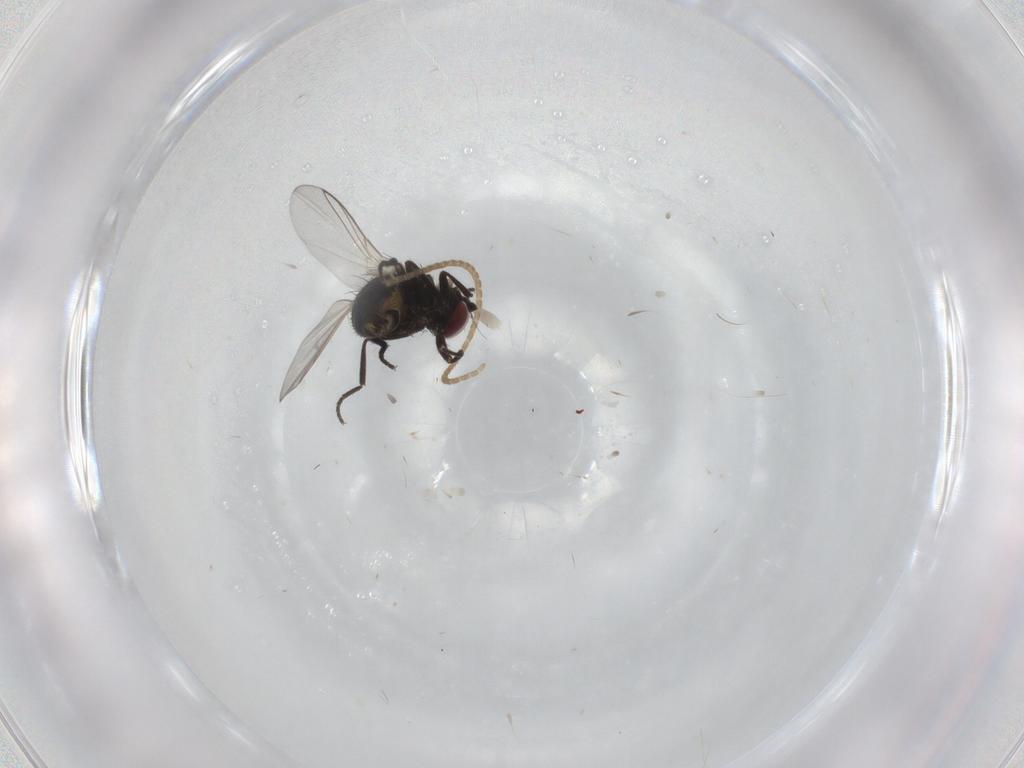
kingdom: Animalia
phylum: Arthropoda
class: Insecta
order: Diptera
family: Agromyzidae
